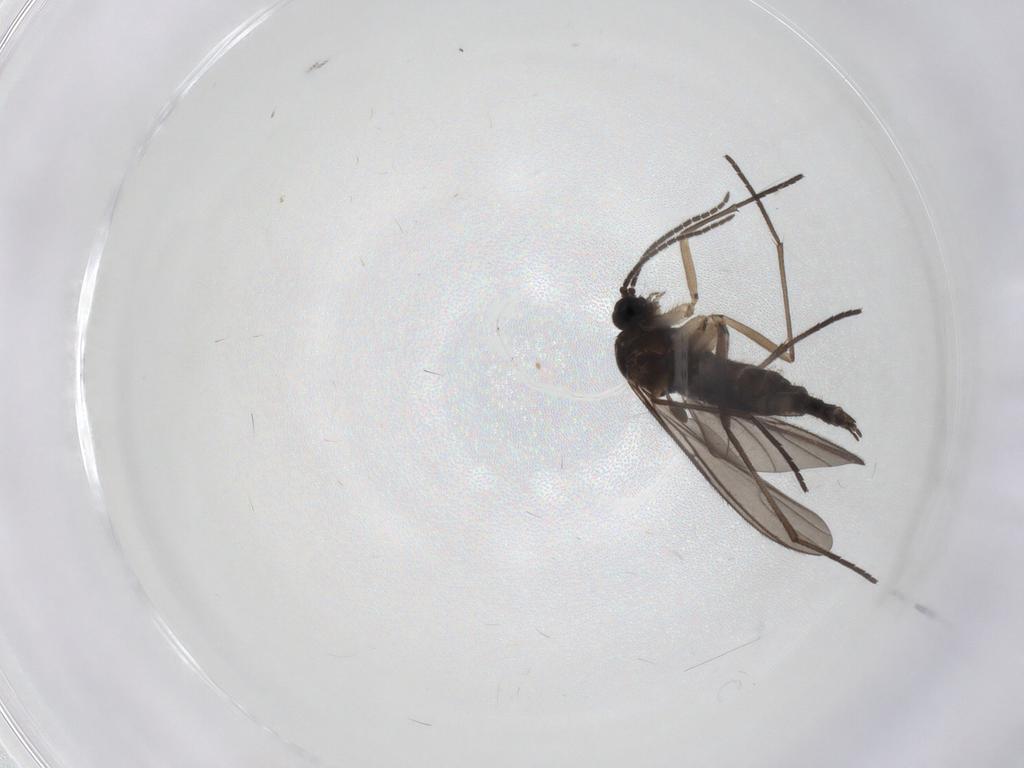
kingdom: Animalia
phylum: Arthropoda
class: Insecta
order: Diptera
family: Sciaridae
